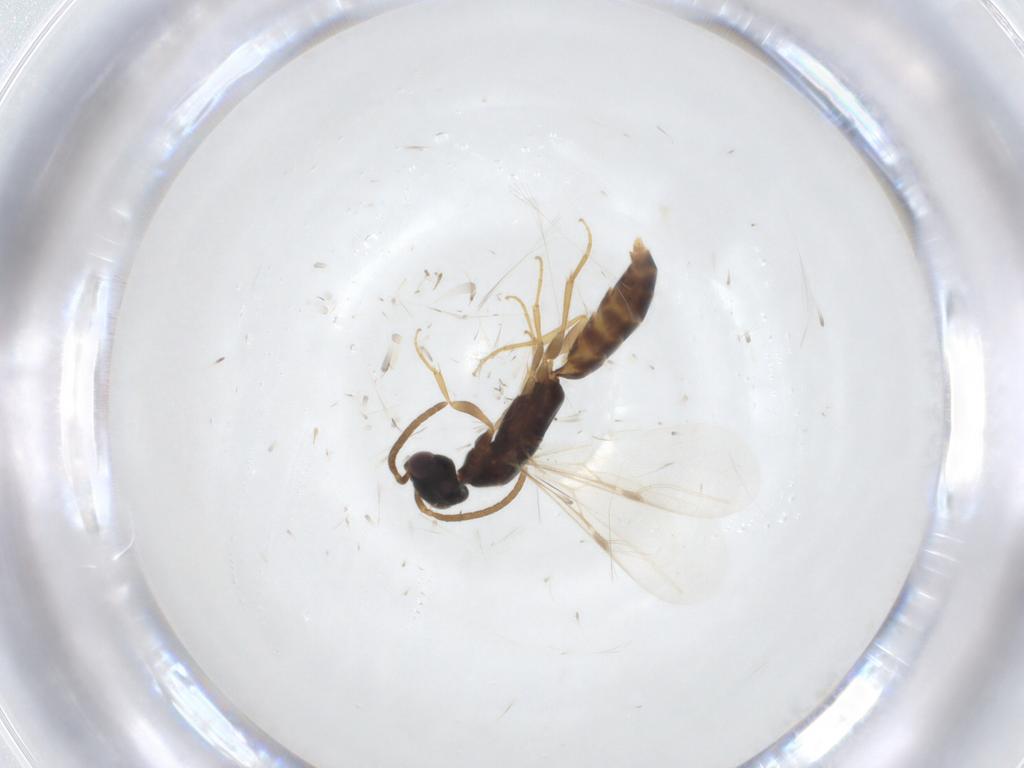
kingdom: Animalia
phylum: Arthropoda
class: Insecta
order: Hymenoptera
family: Bethylidae
